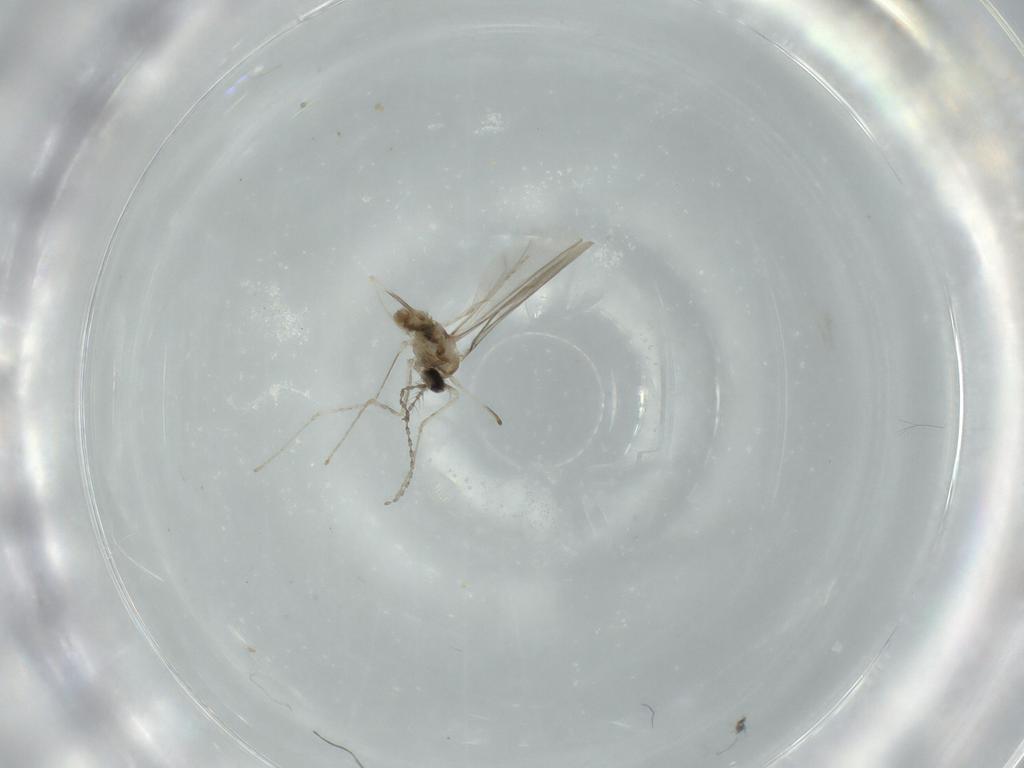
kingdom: Animalia
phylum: Arthropoda
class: Insecta
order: Diptera
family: Cecidomyiidae
